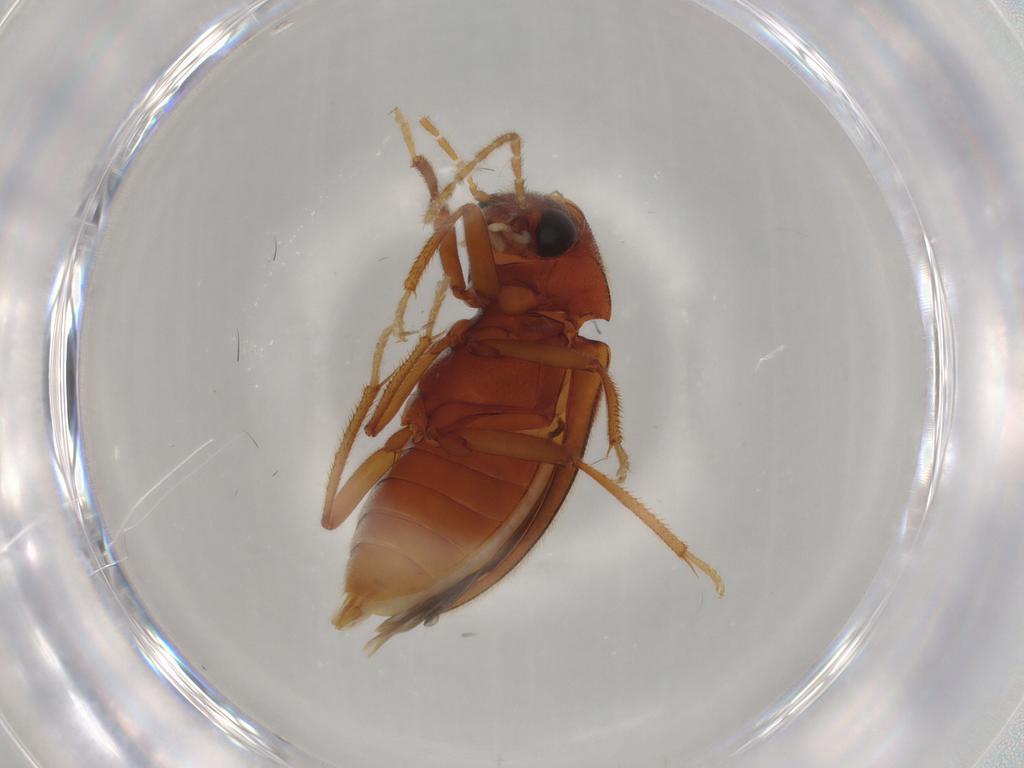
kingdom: Animalia
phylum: Arthropoda
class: Insecta
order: Coleoptera
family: Ptilodactylidae
